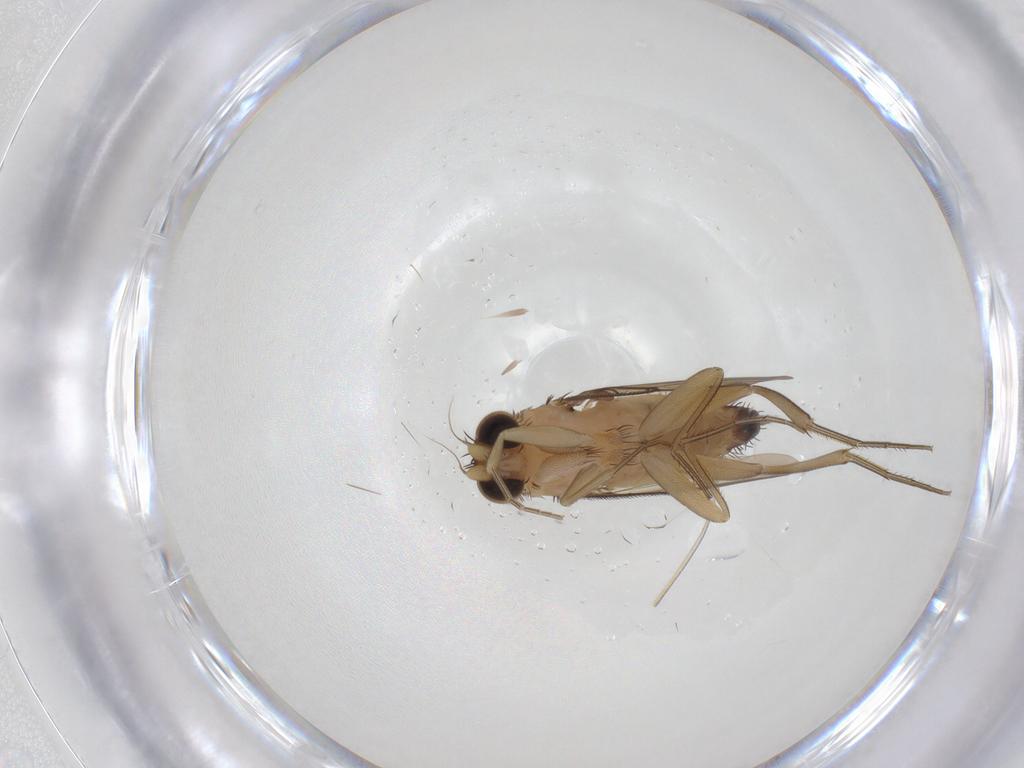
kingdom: Animalia
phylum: Arthropoda
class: Insecta
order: Diptera
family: Phoridae
